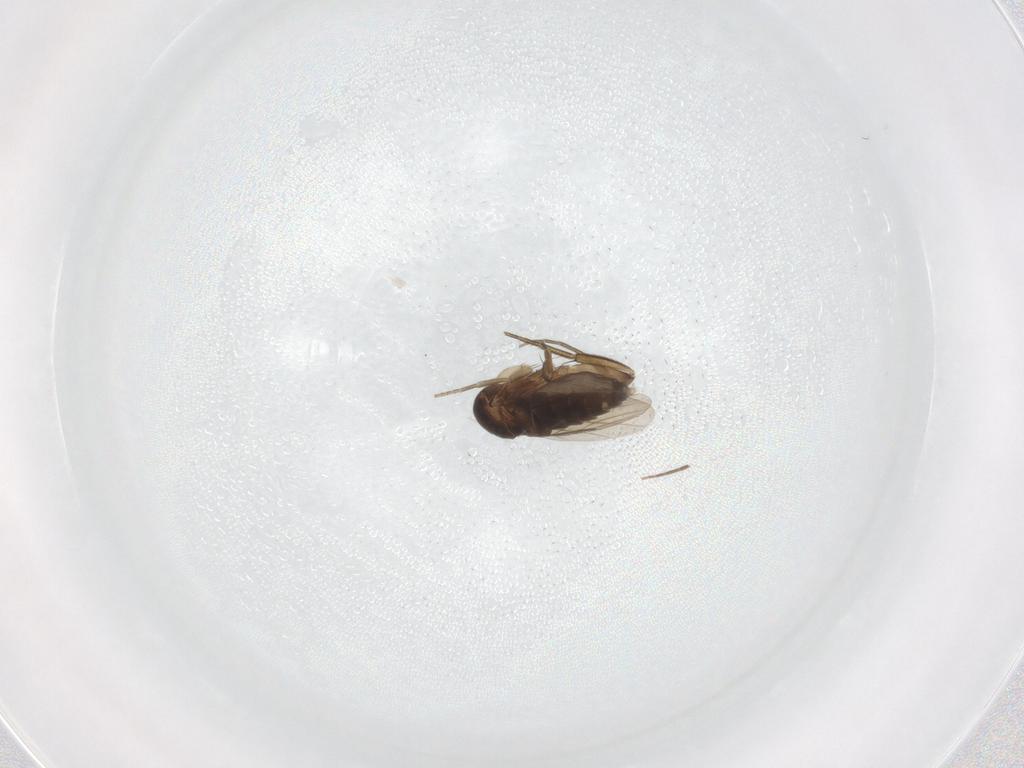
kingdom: Animalia
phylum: Arthropoda
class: Insecta
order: Diptera
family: Phoridae
